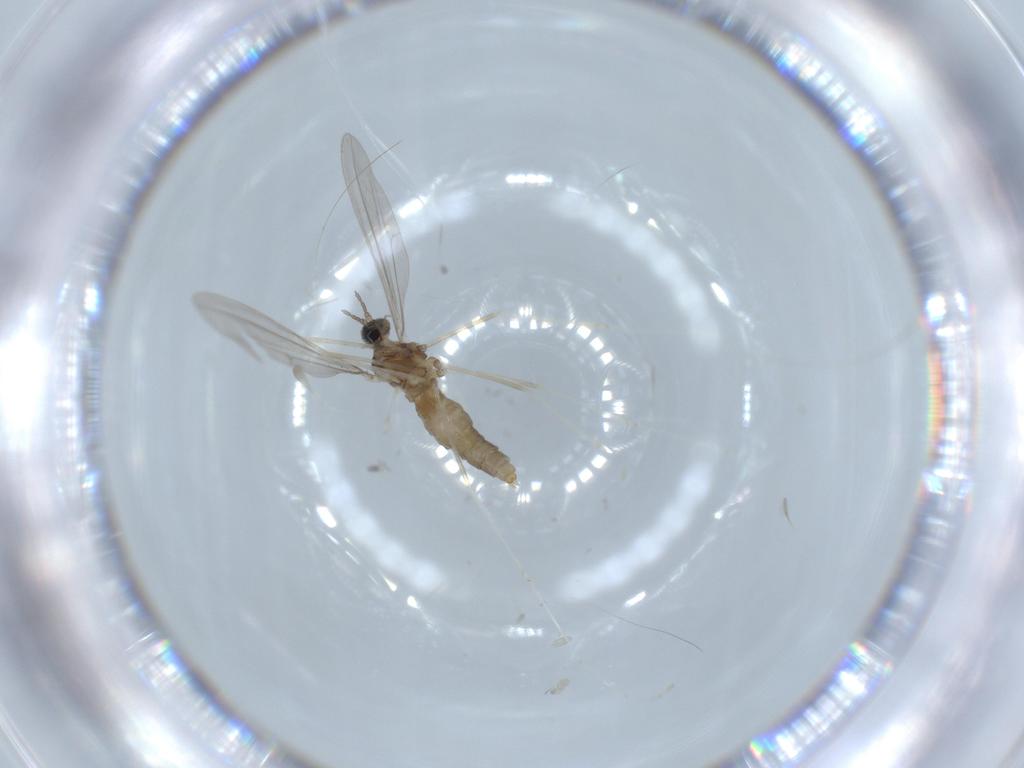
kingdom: Animalia
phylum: Arthropoda
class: Insecta
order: Diptera
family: Cecidomyiidae
